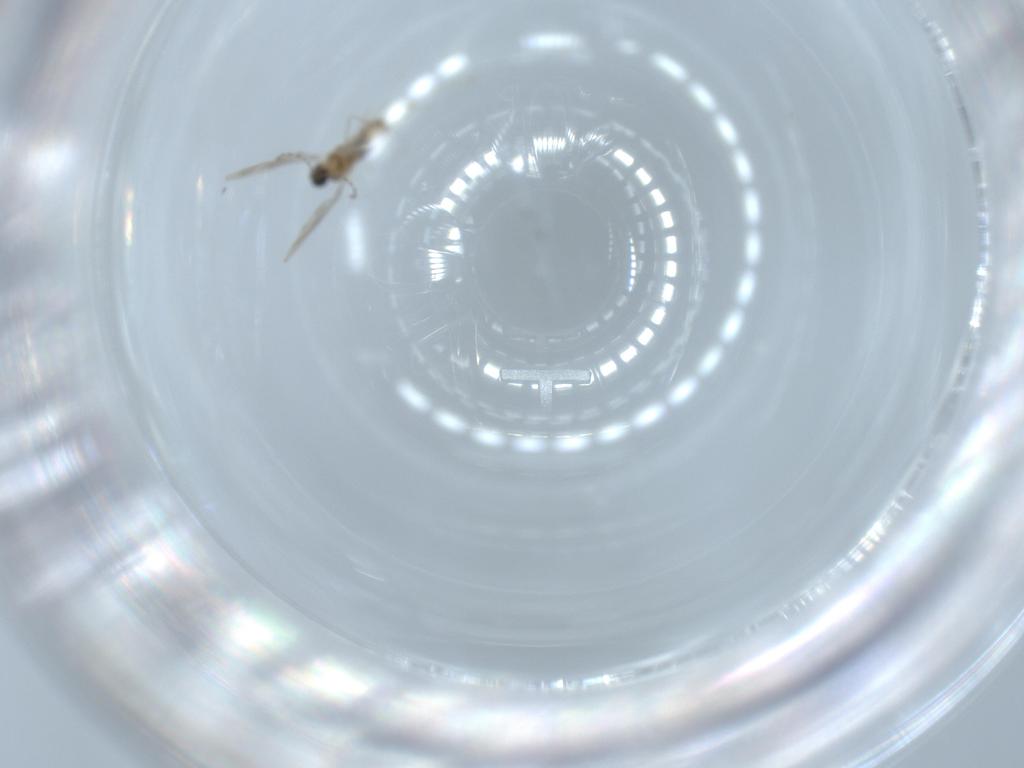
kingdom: Animalia
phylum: Arthropoda
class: Insecta
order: Diptera
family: Cecidomyiidae
